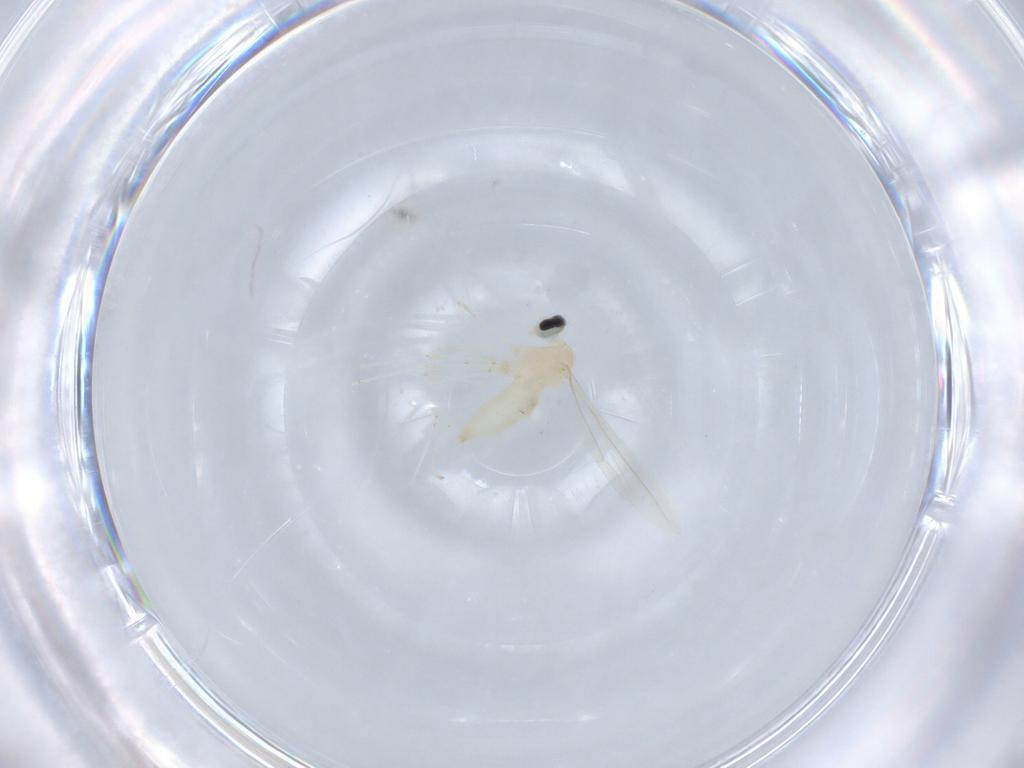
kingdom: Animalia
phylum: Arthropoda
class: Insecta
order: Diptera
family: Cecidomyiidae
